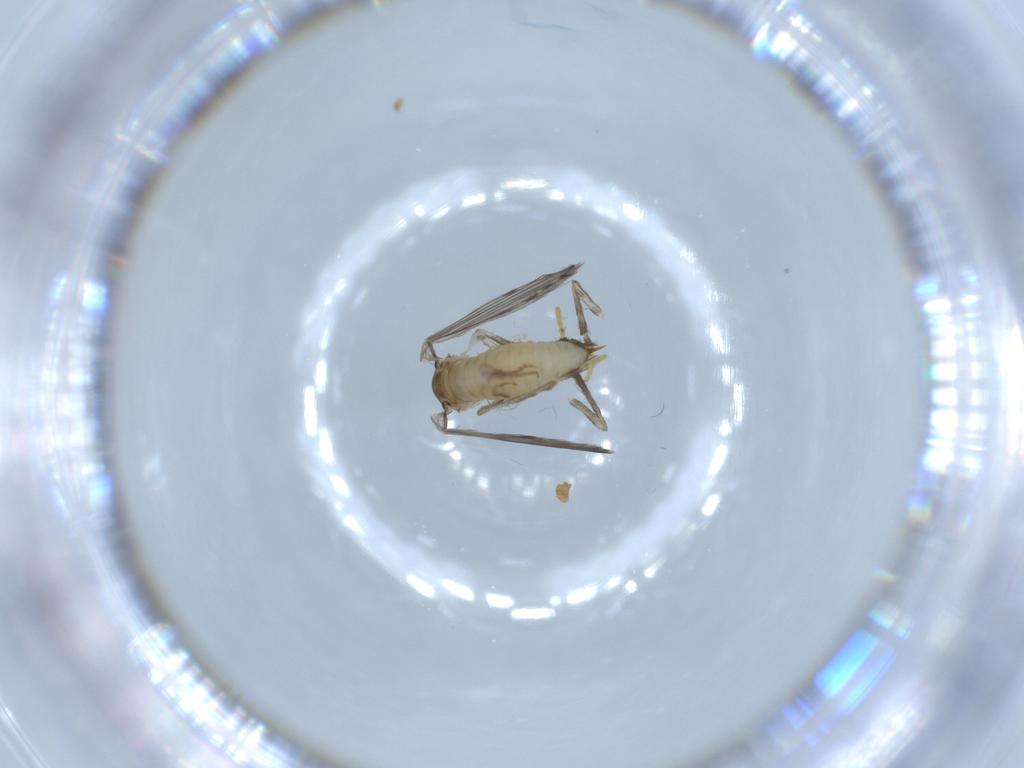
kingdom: Animalia
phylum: Arthropoda
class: Insecta
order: Diptera
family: Psychodidae
